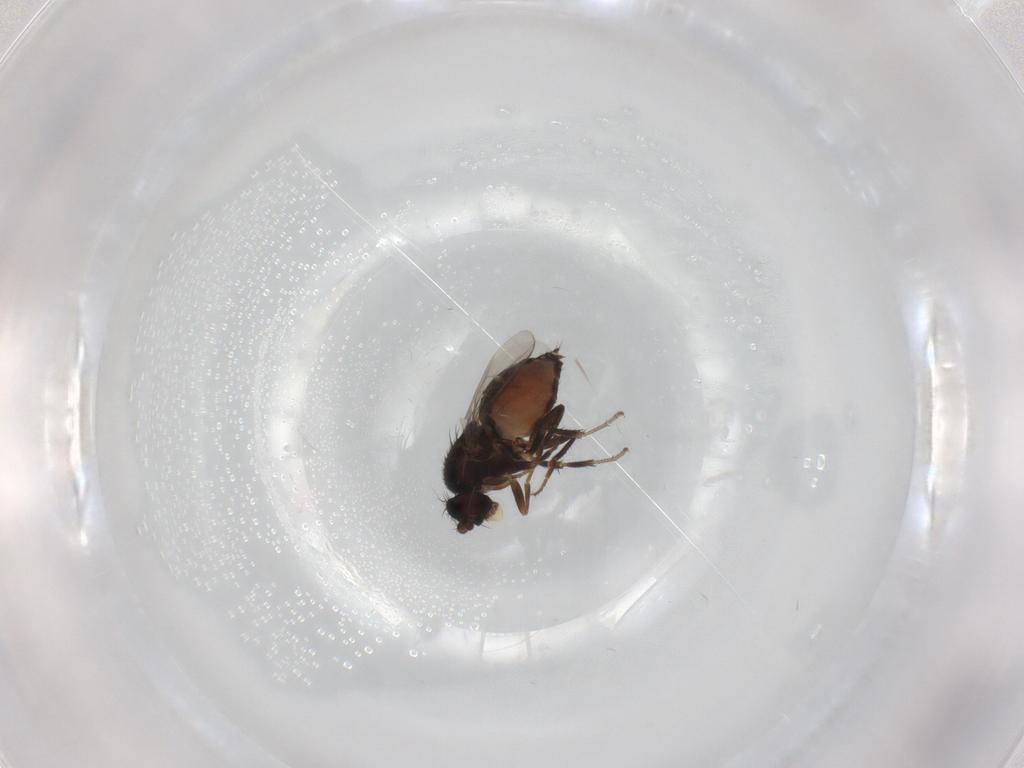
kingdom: Animalia
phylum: Arthropoda
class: Insecta
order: Diptera
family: Sphaeroceridae
